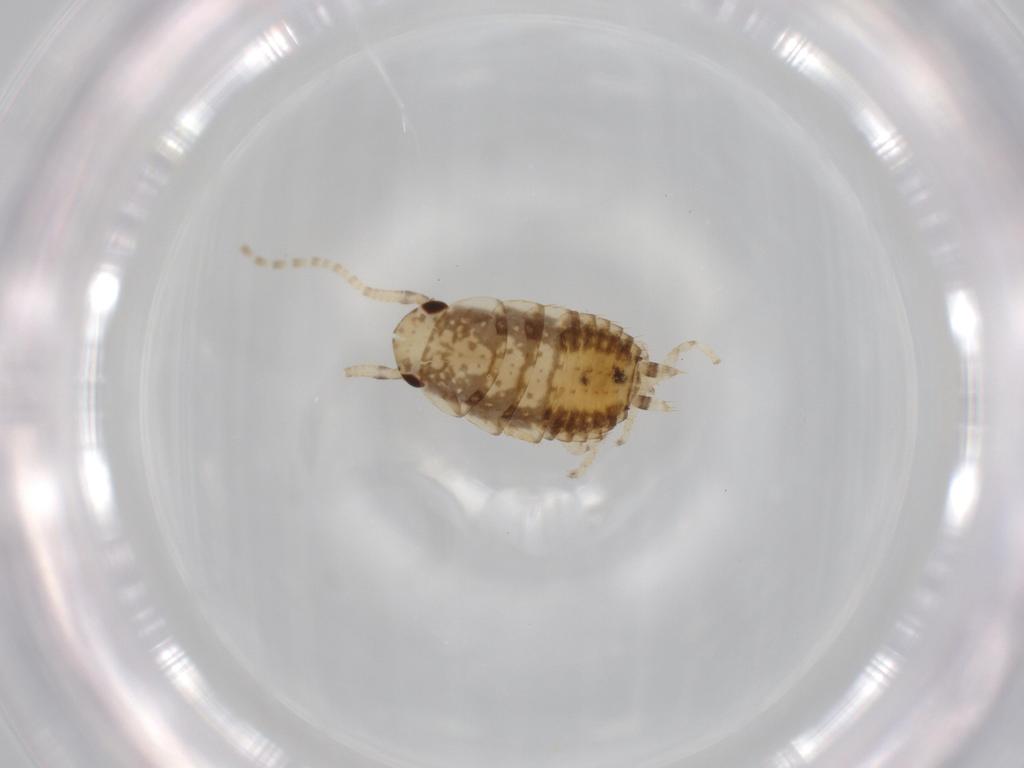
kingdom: Animalia
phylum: Arthropoda
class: Insecta
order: Blattodea
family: Ectobiidae
